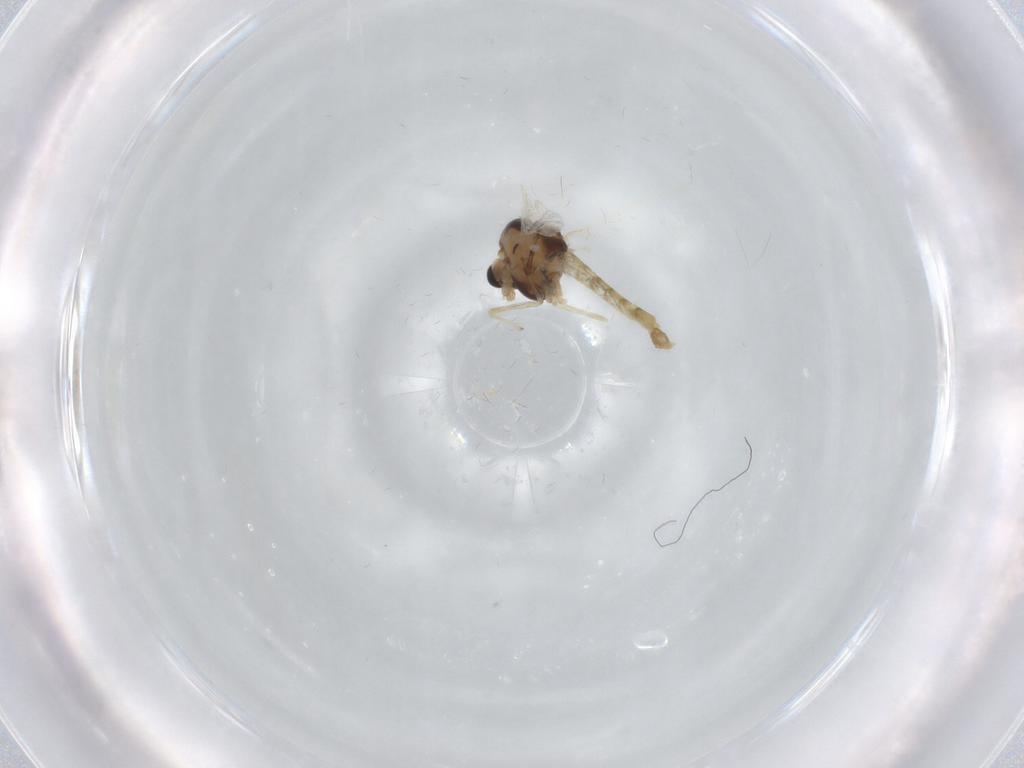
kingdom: Animalia
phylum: Arthropoda
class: Insecta
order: Diptera
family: Chironomidae
